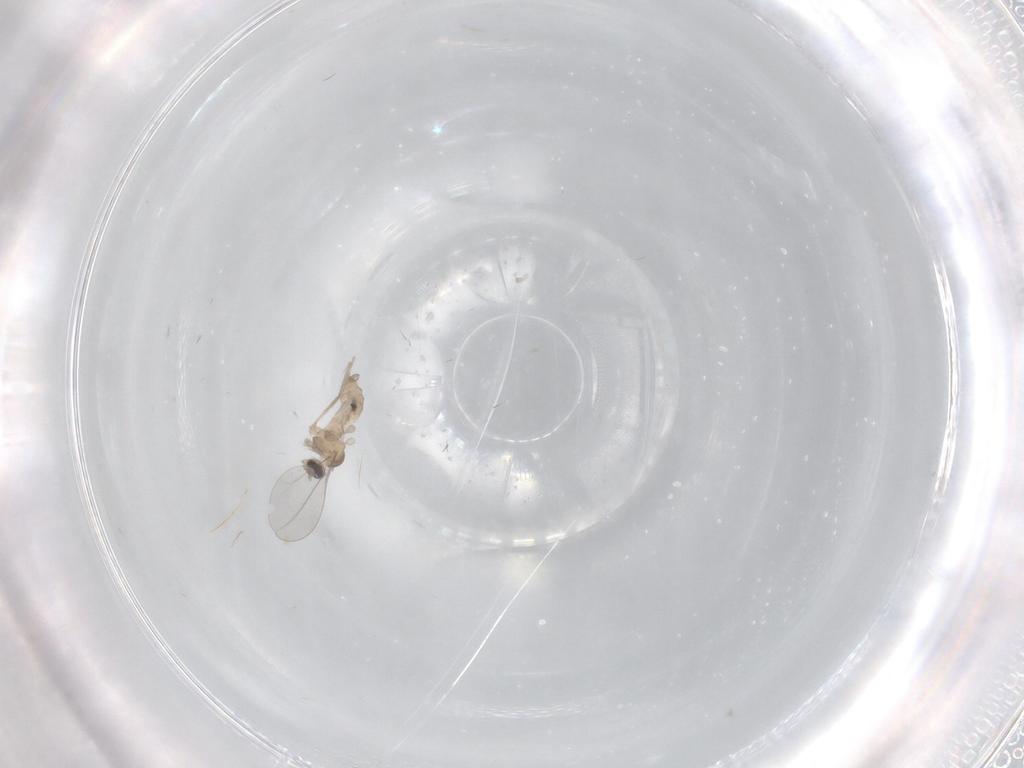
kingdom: Animalia
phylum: Arthropoda
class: Insecta
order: Diptera
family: Cecidomyiidae
